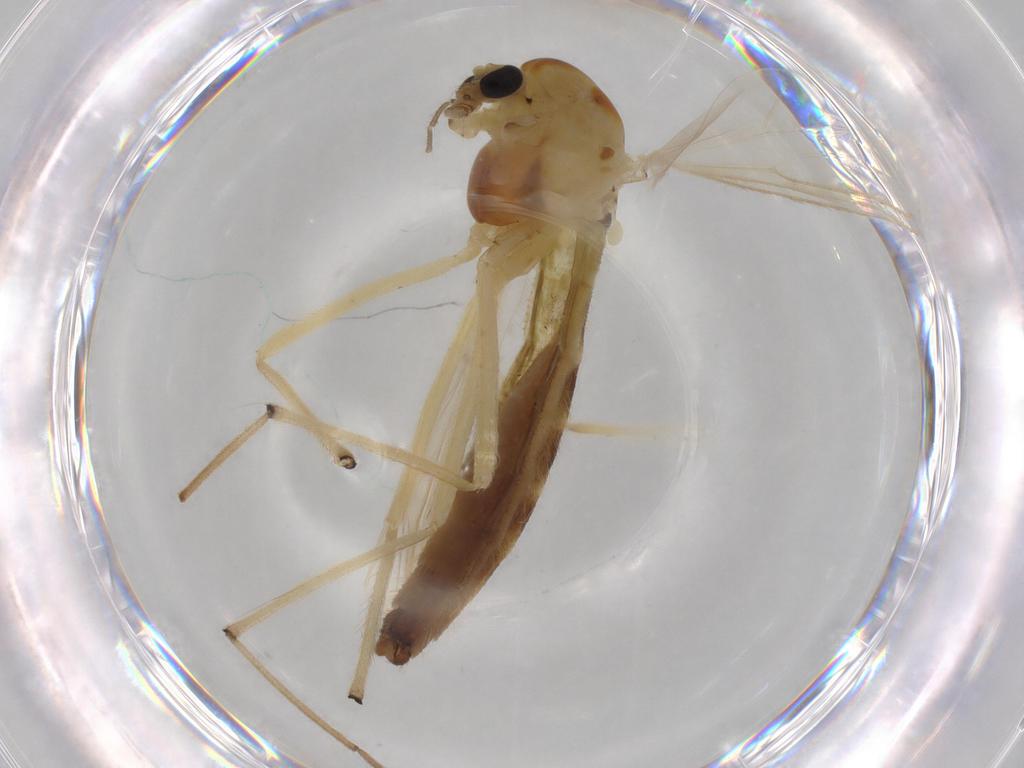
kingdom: Animalia
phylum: Arthropoda
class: Insecta
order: Diptera
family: Chironomidae
